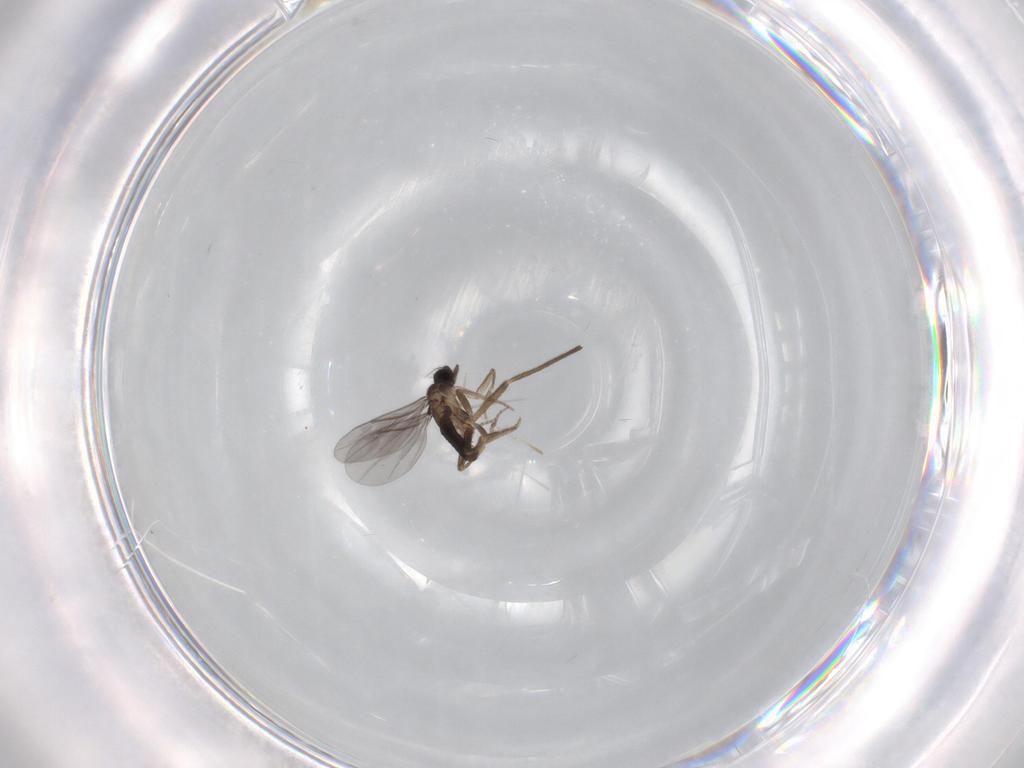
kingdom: Animalia
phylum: Arthropoda
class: Insecta
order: Diptera
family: Chironomidae
